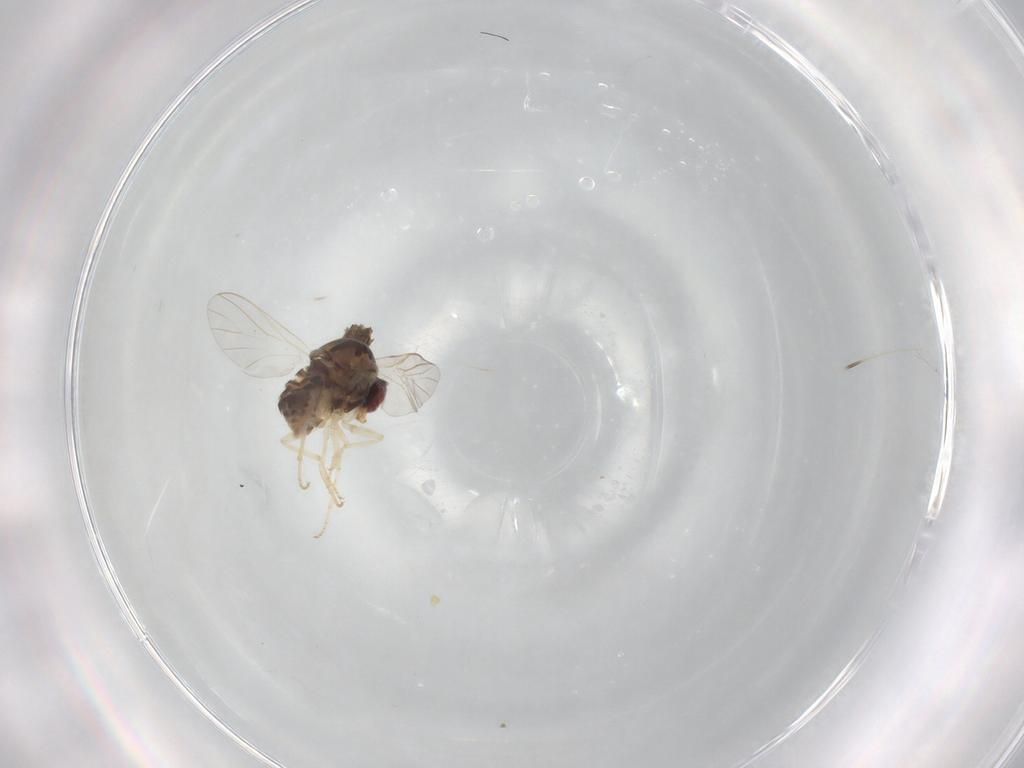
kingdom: Animalia
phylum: Arthropoda
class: Insecta
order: Diptera
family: Bombyliidae
